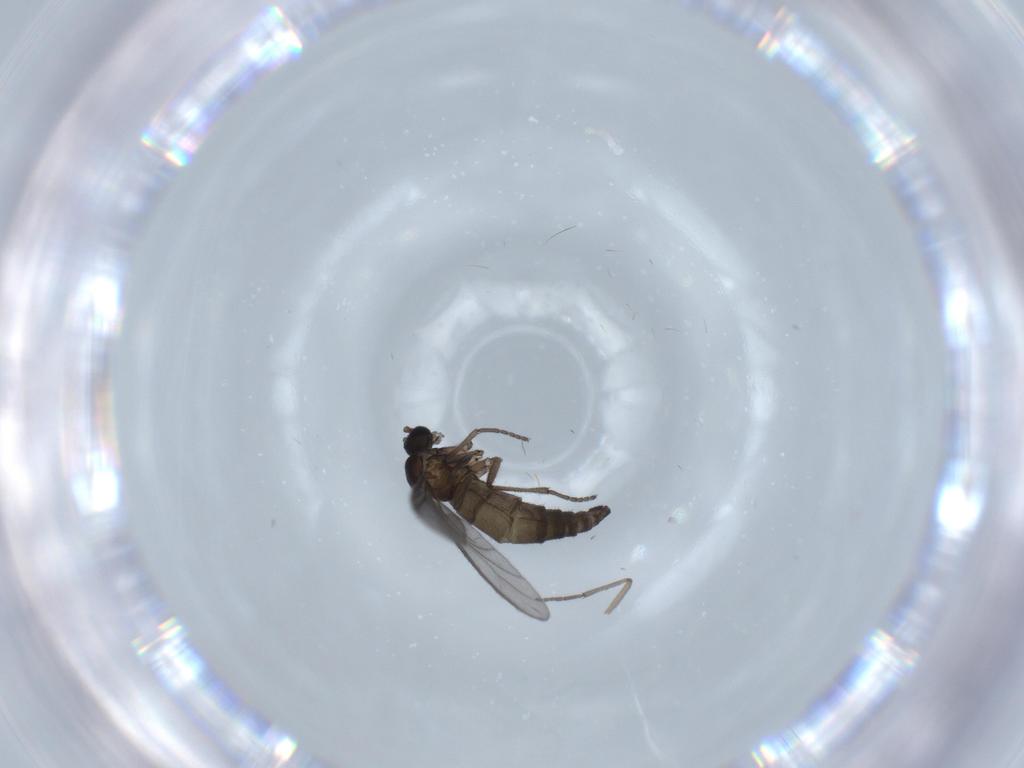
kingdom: Animalia
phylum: Arthropoda
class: Insecta
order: Diptera
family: Sciaridae
